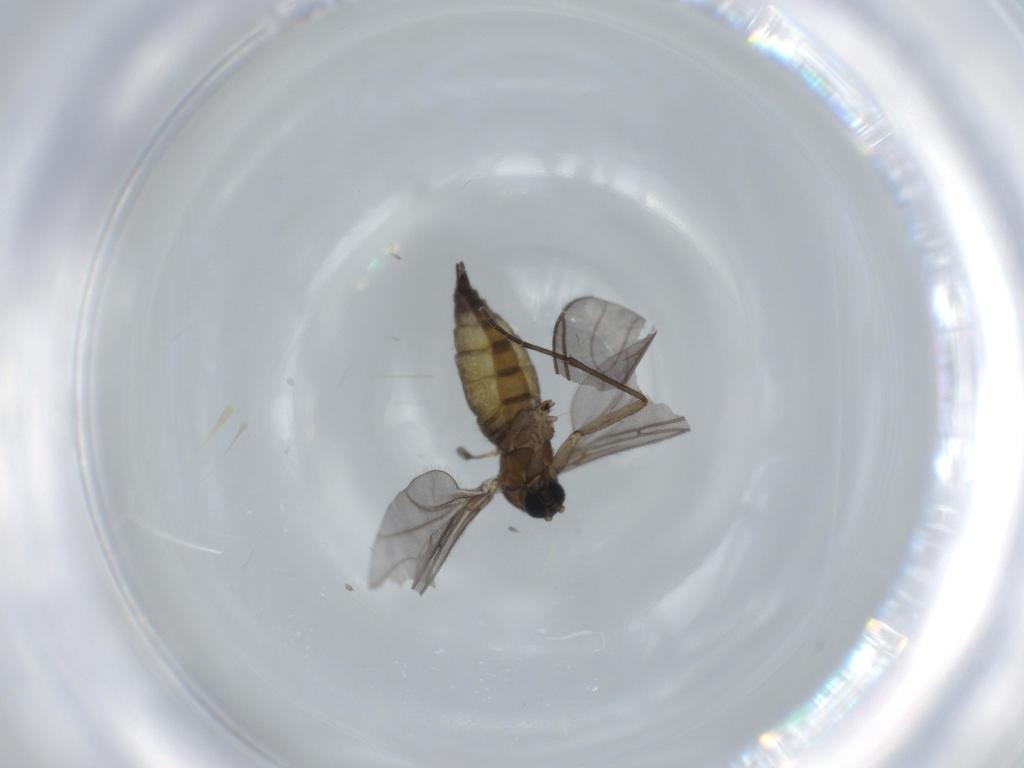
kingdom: Animalia
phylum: Arthropoda
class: Insecta
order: Diptera
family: Sciaridae
